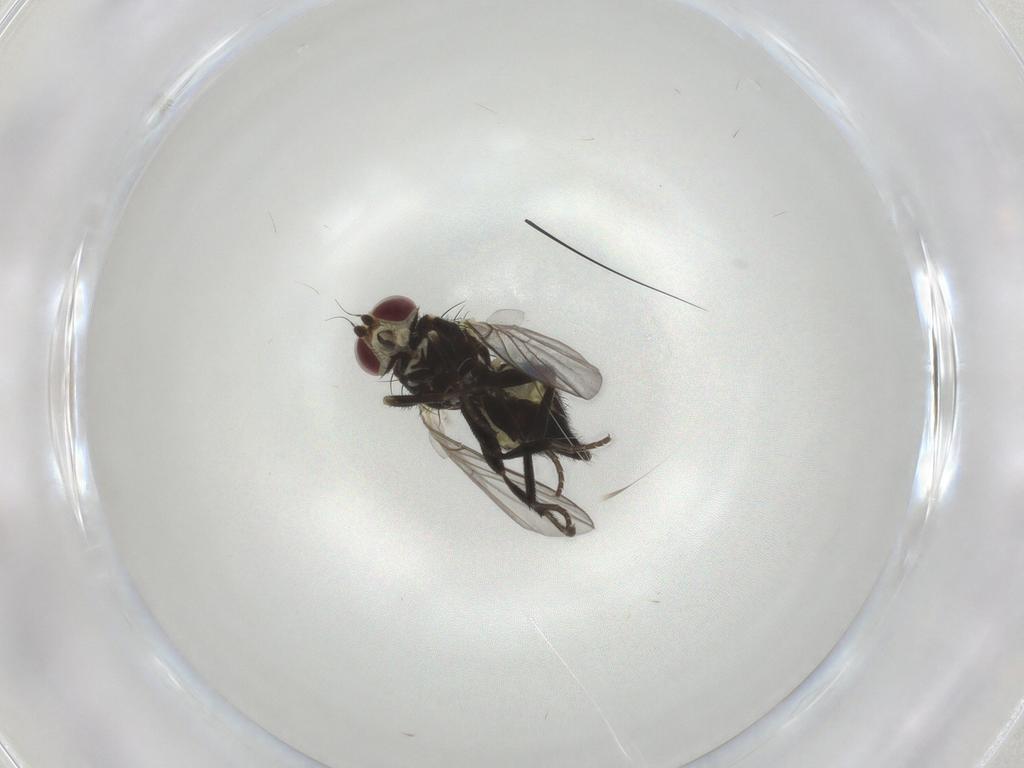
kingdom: Animalia
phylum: Arthropoda
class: Insecta
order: Diptera
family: Agromyzidae
